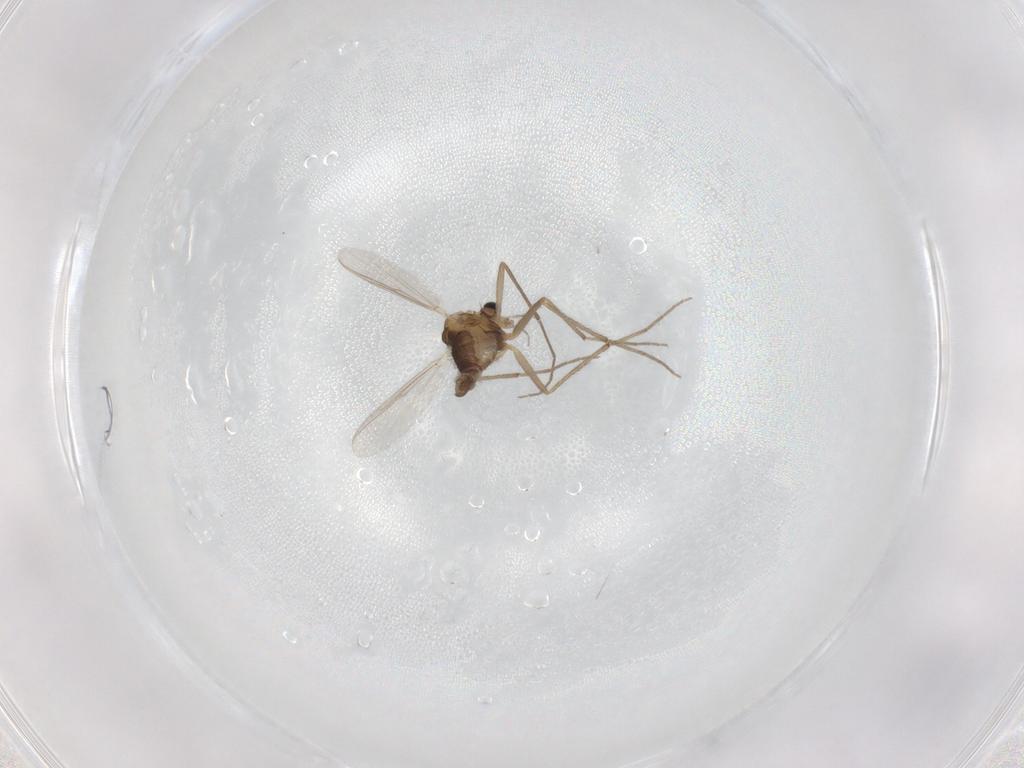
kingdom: Animalia
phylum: Arthropoda
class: Insecta
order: Diptera
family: Chironomidae
